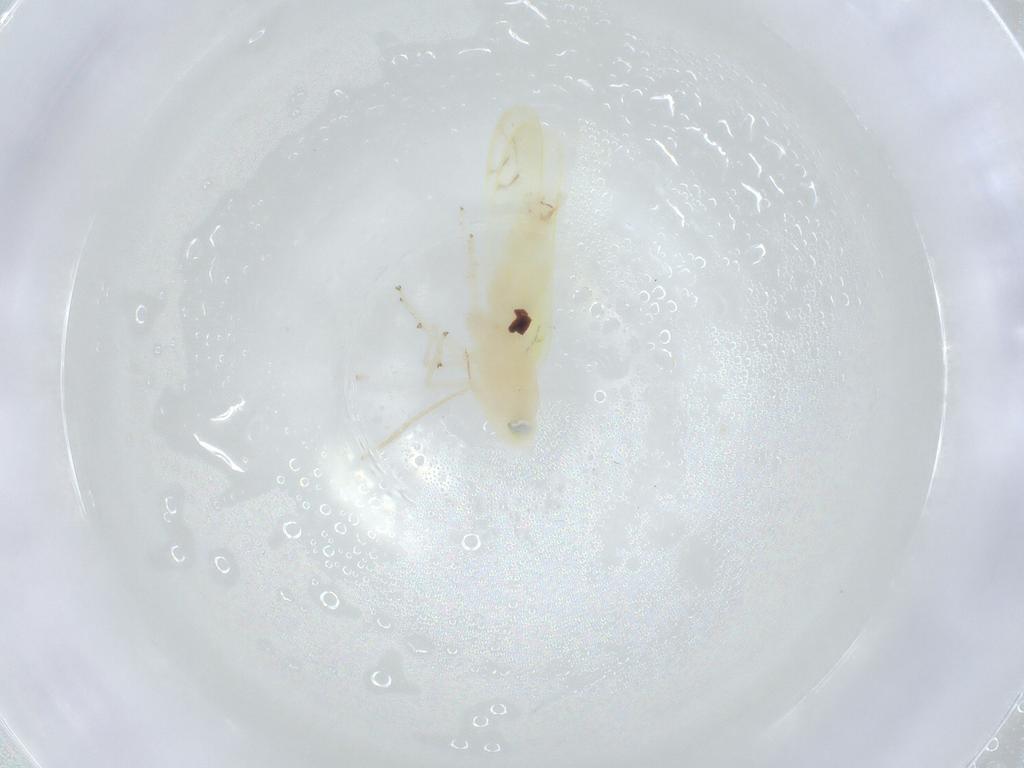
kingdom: Animalia
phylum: Arthropoda
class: Insecta
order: Hemiptera
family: Cicadellidae
